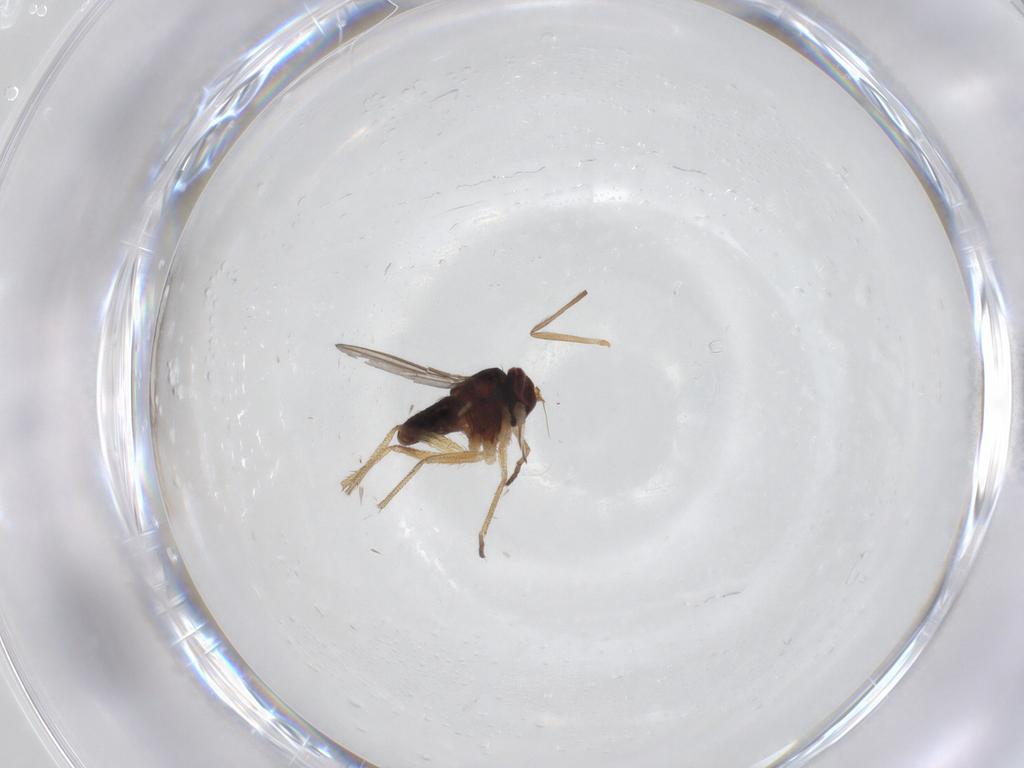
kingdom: Animalia
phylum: Arthropoda
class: Insecta
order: Diptera
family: Dolichopodidae
